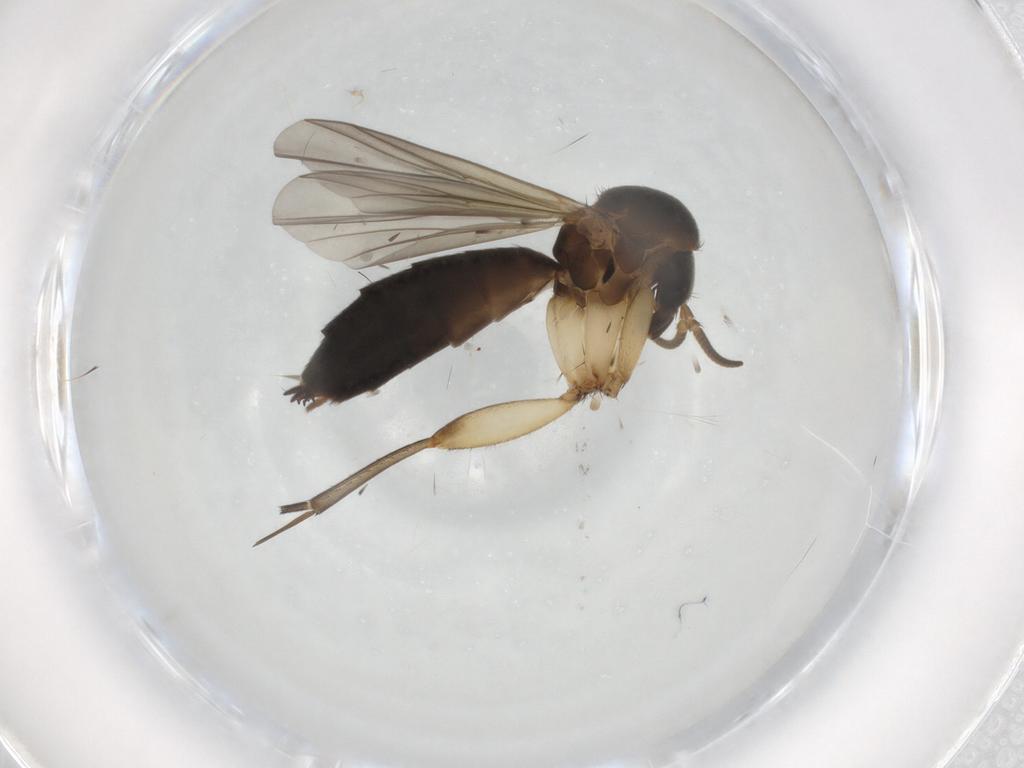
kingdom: Animalia
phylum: Arthropoda
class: Insecta
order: Diptera
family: Mycetophilidae
